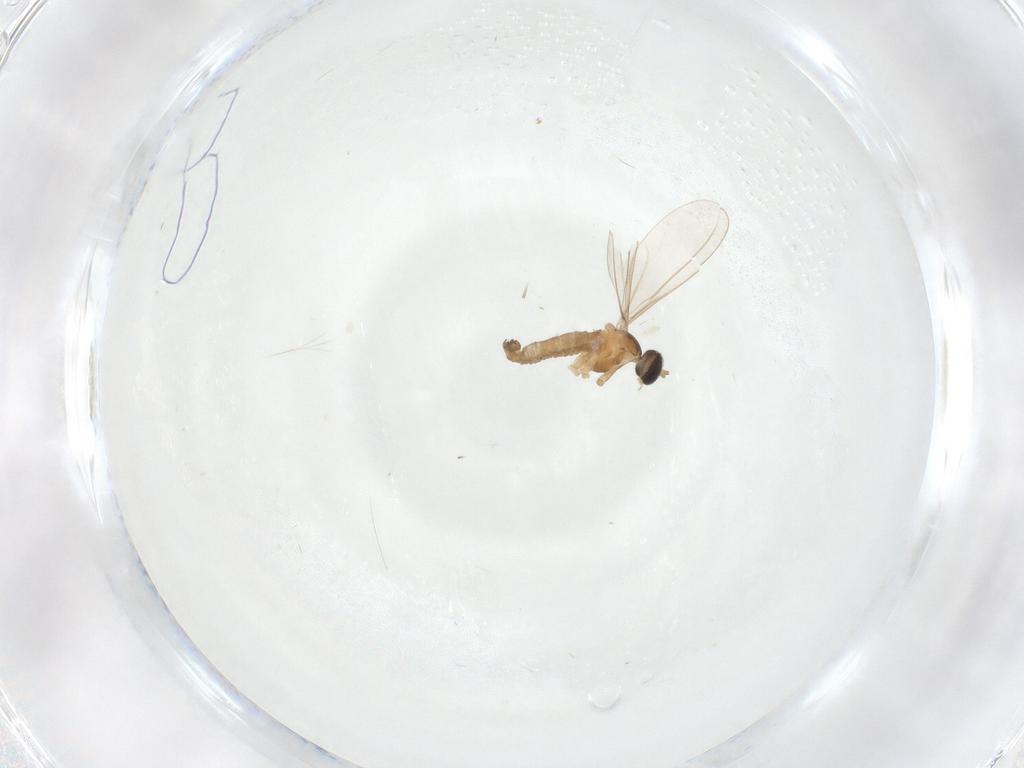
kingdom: Animalia
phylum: Arthropoda
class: Insecta
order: Diptera
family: Cecidomyiidae
